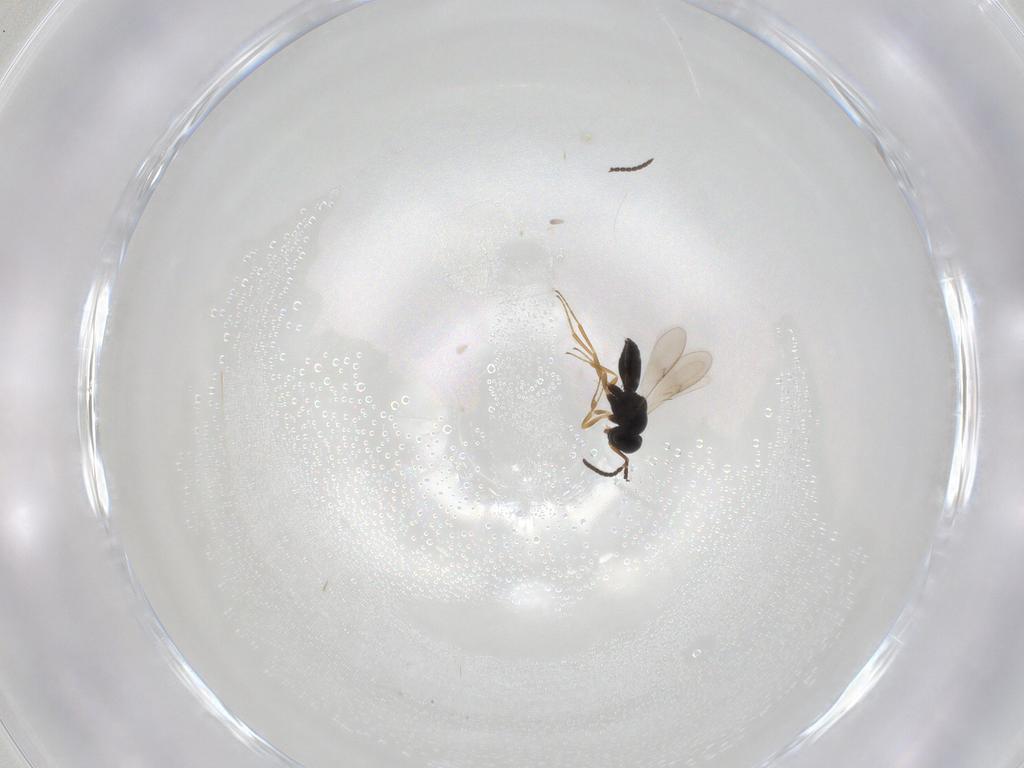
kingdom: Animalia
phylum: Arthropoda
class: Insecta
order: Hymenoptera
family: Scelionidae
